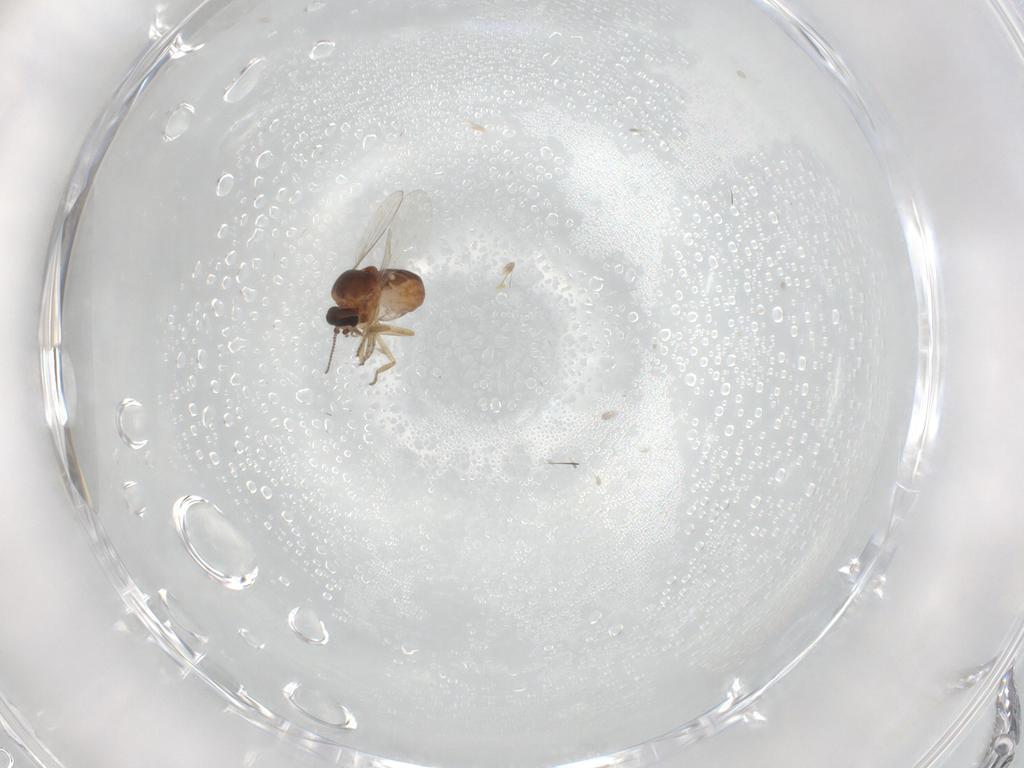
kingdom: Animalia
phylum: Arthropoda
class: Insecta
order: Diptera
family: Ceratopogonidae
